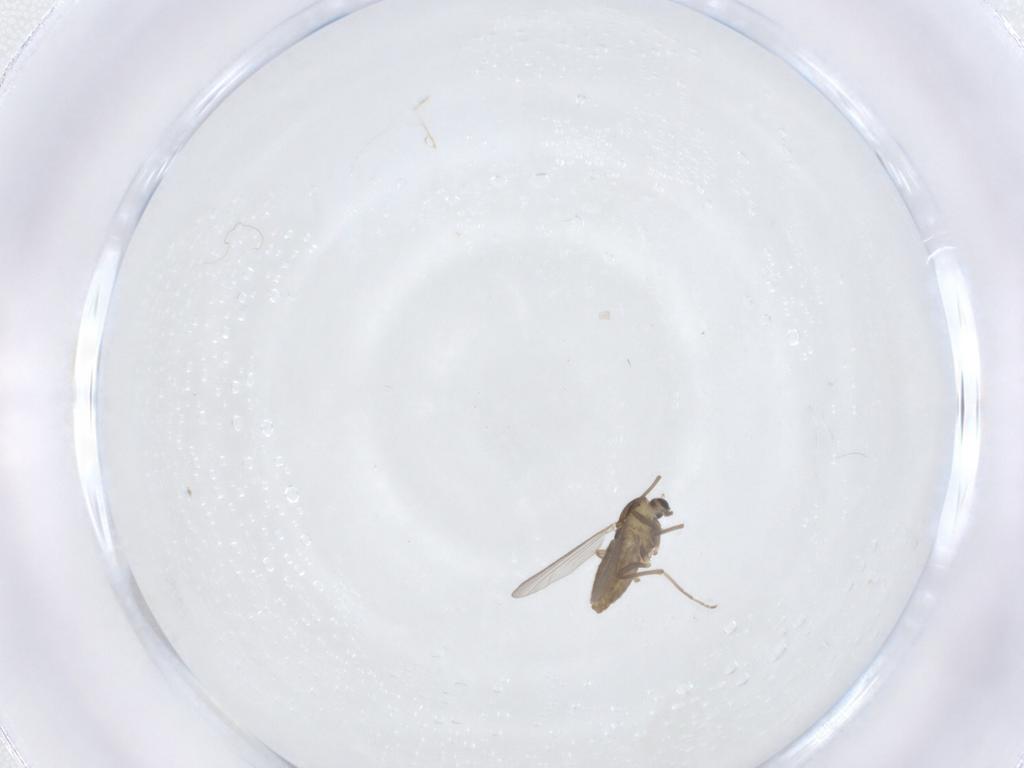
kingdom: Animalia
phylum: Arthropoda
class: Insecta
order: Diptera
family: Chironomidae
